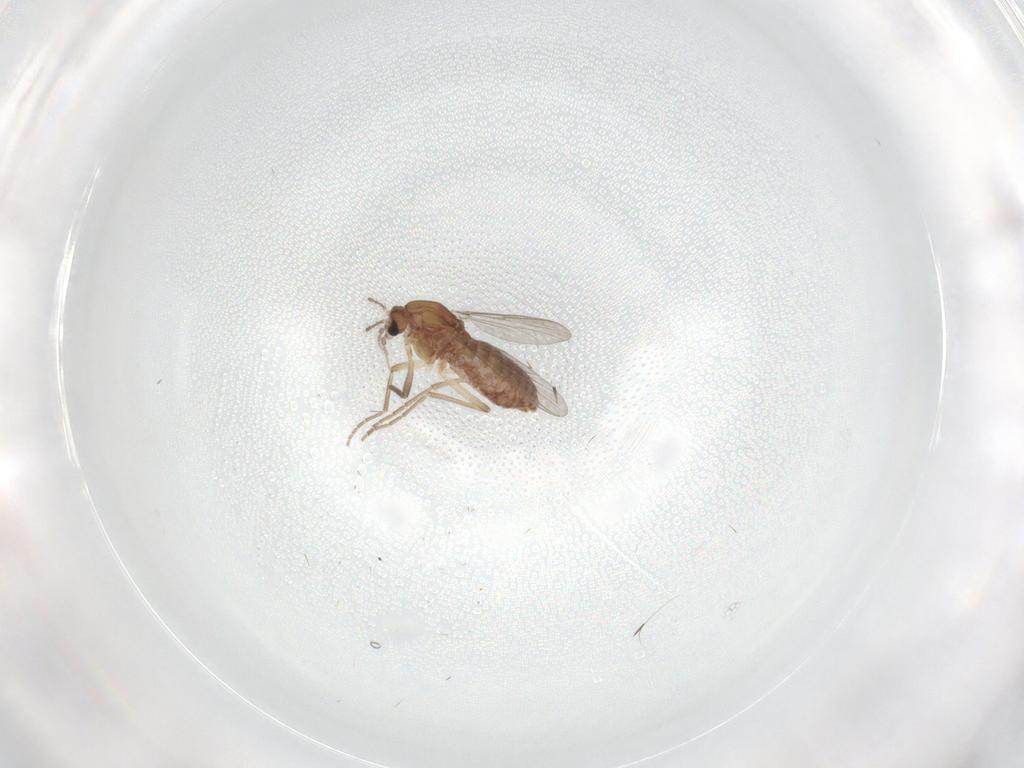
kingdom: Animalia
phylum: Arthropoda
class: Insecta
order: Diptera
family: Chironomidae
